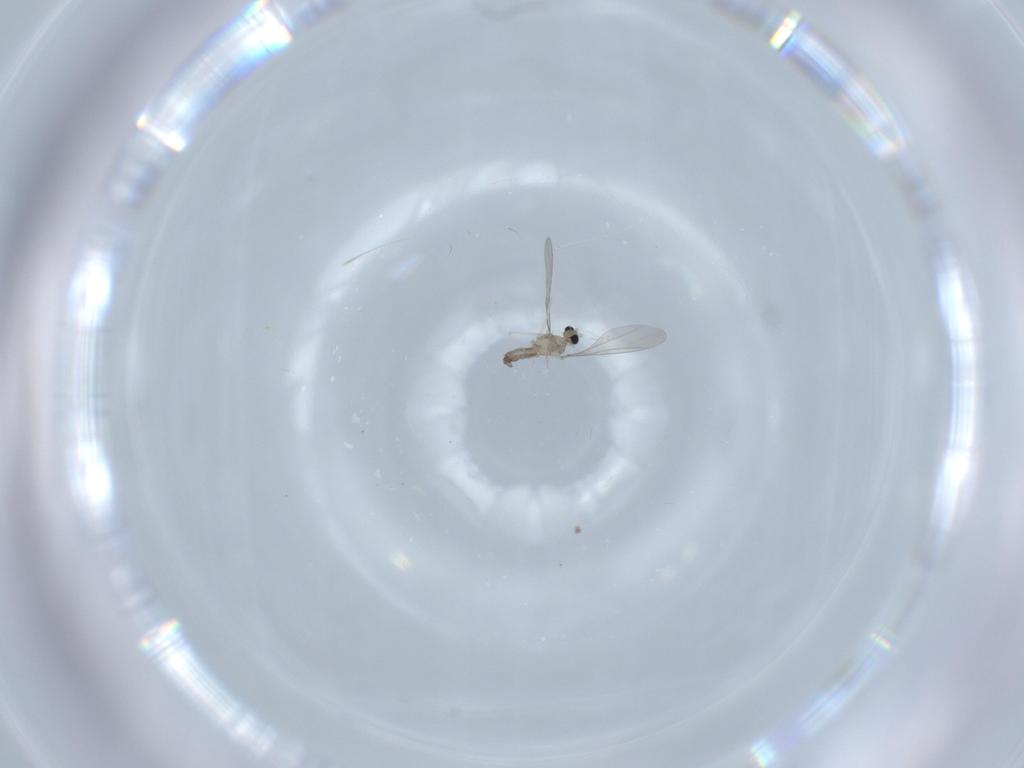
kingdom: Animalia
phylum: Arthropoda
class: Insecta
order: Diptera
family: Cecidomyiidae
